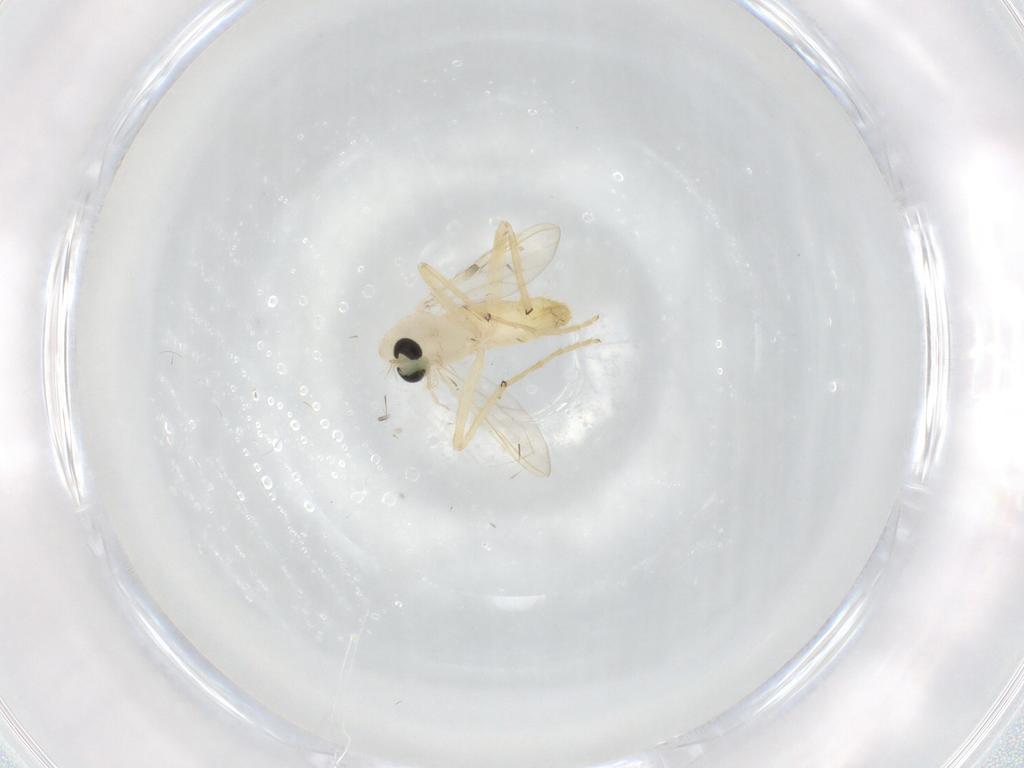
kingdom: Animalia
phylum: Arthropoda
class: Insecta
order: Diptera
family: Chironomidae
